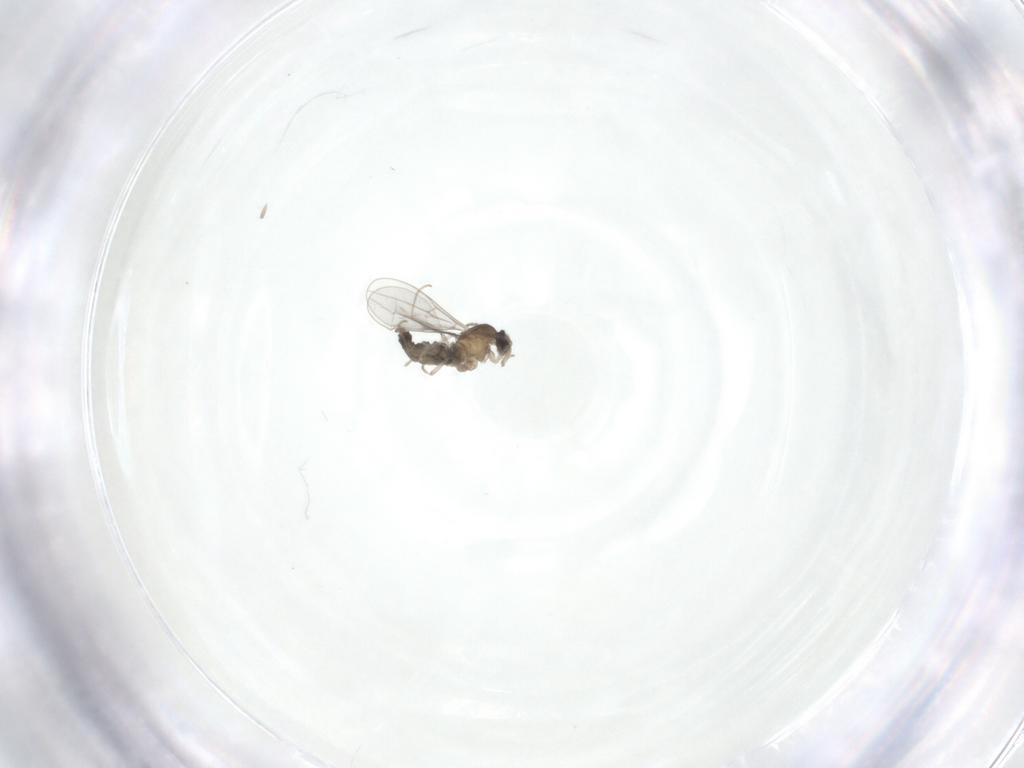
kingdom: Animalia
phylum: Arthropoda
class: Insecta
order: Diptera
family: Cecidomyiidae
